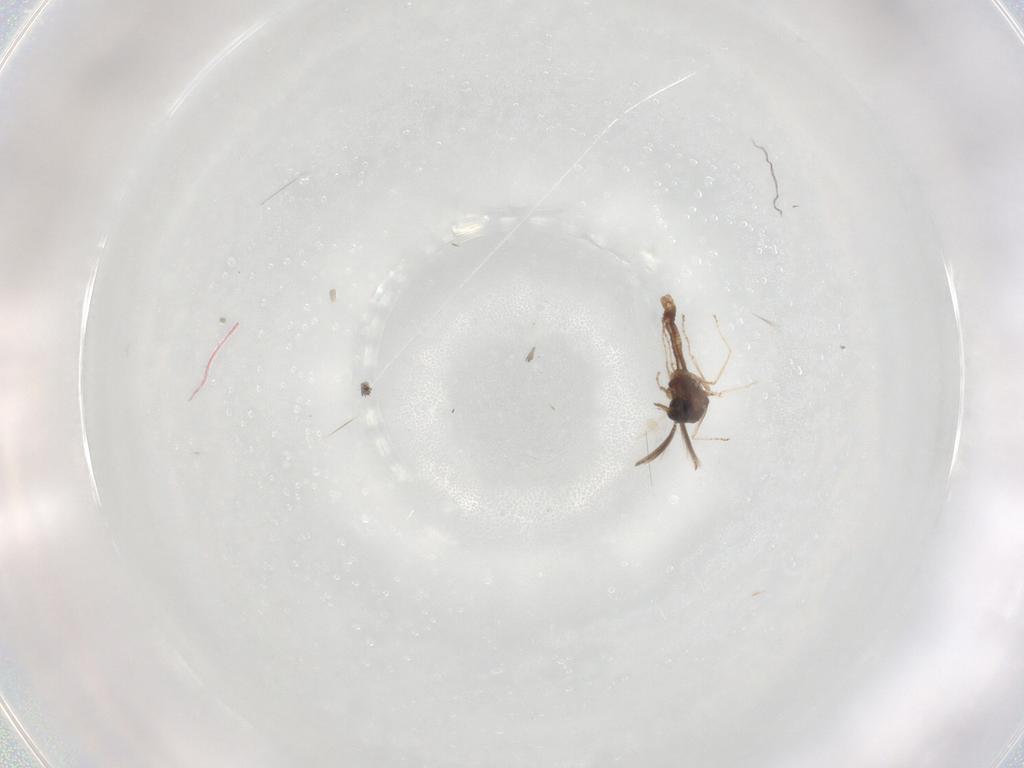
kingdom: Animalia
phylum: Arthropoda
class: Insecta
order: Diptera
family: Ceratopogonidae
